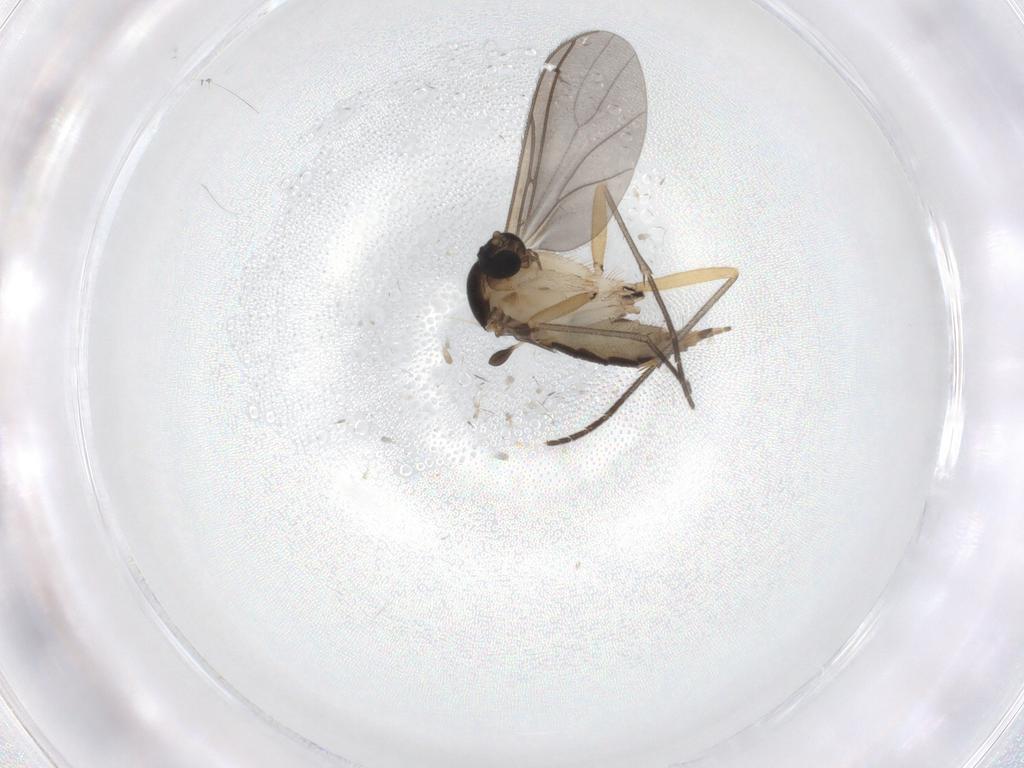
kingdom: Animalia
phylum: Arthropoda
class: Insecta
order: Diptera
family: Sciaridae
